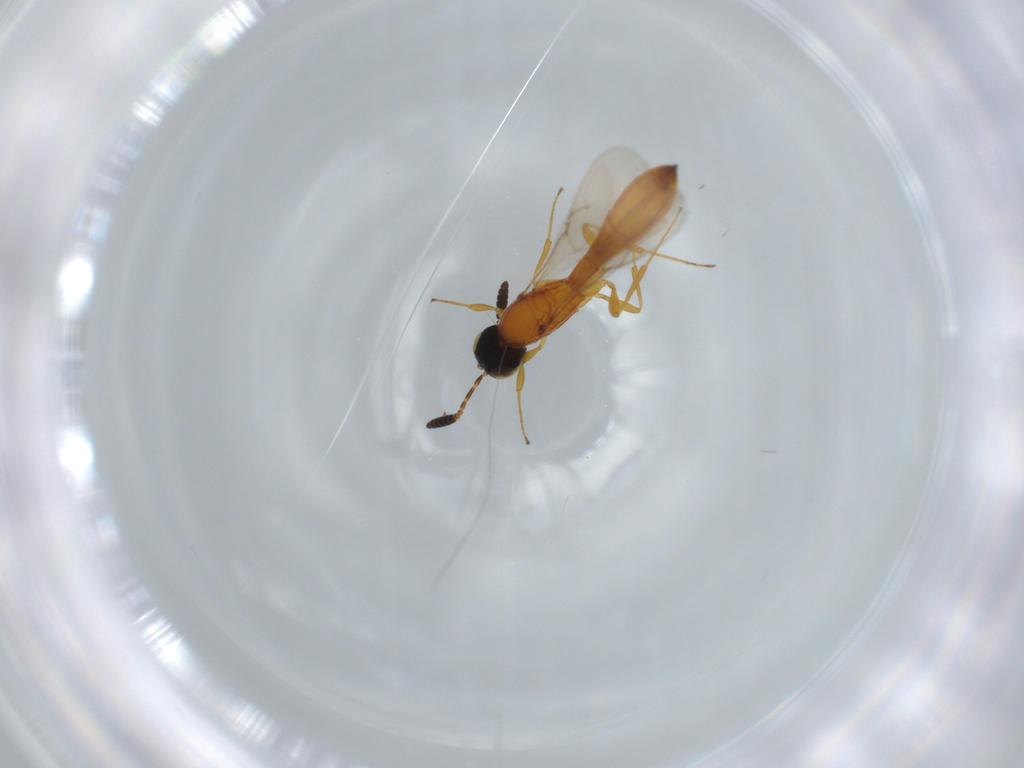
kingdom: Animalia
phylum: Arthropoda
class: Insecta
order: Hymenoptera
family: Scelionidae
